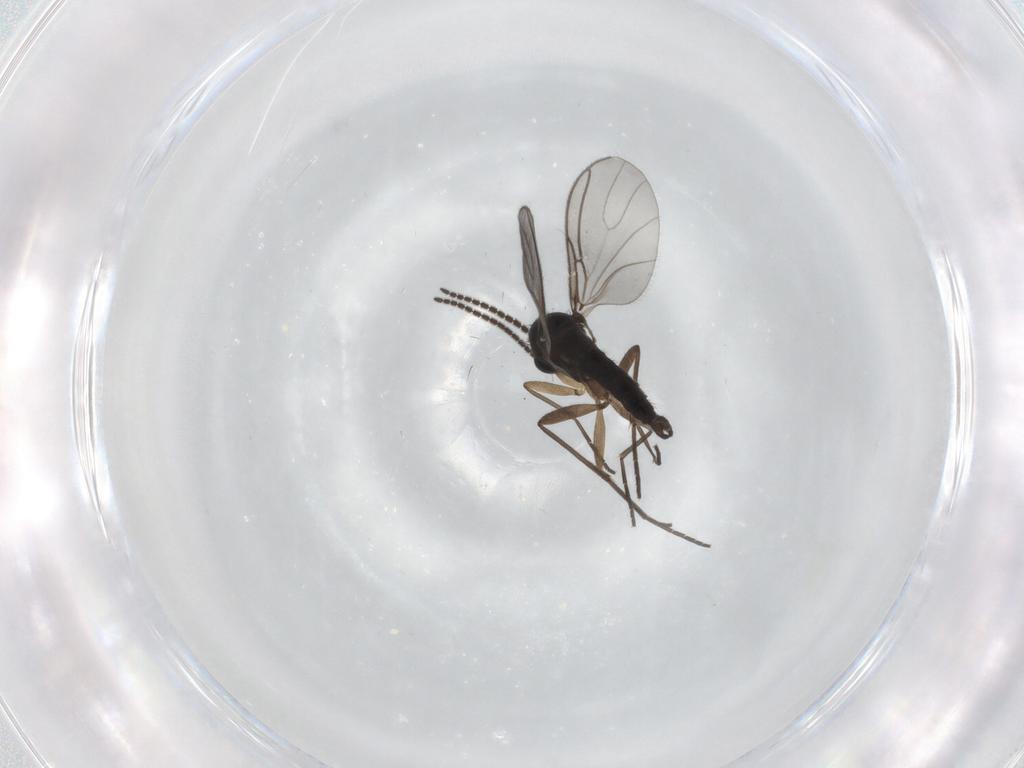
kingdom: Animalia
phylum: Arthropoda
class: Insecta
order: Diptera
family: Sciaridae
